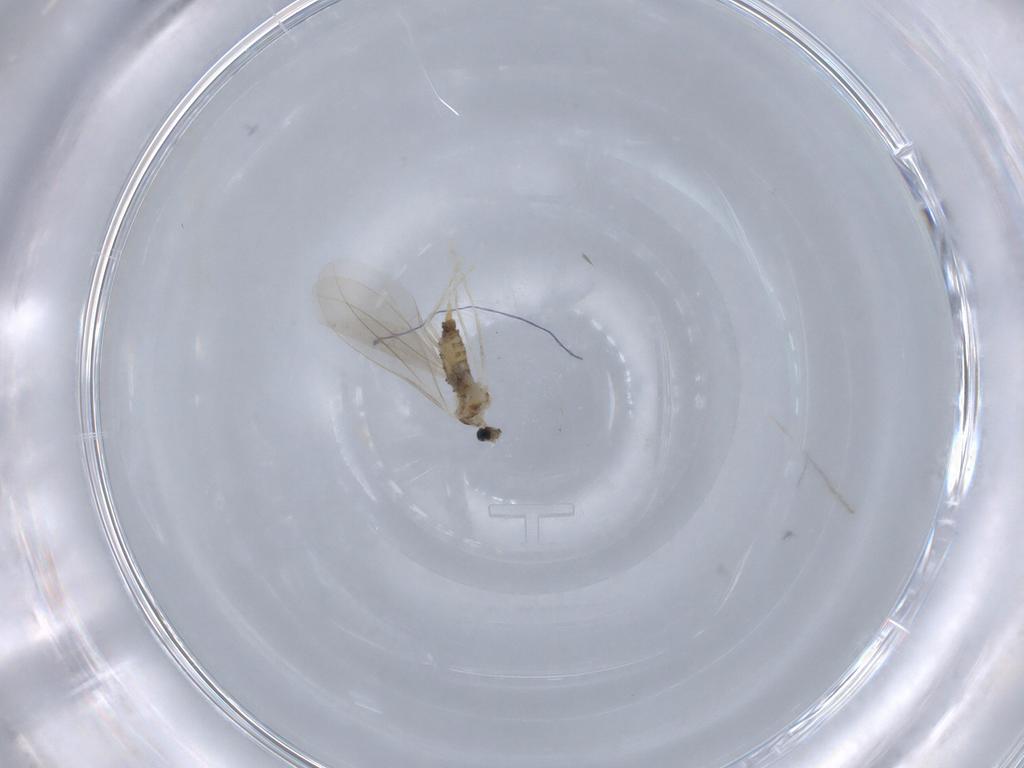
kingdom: Animalia
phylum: Arthropoda
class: Insecta
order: Diptera
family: Cecidomyiidae
